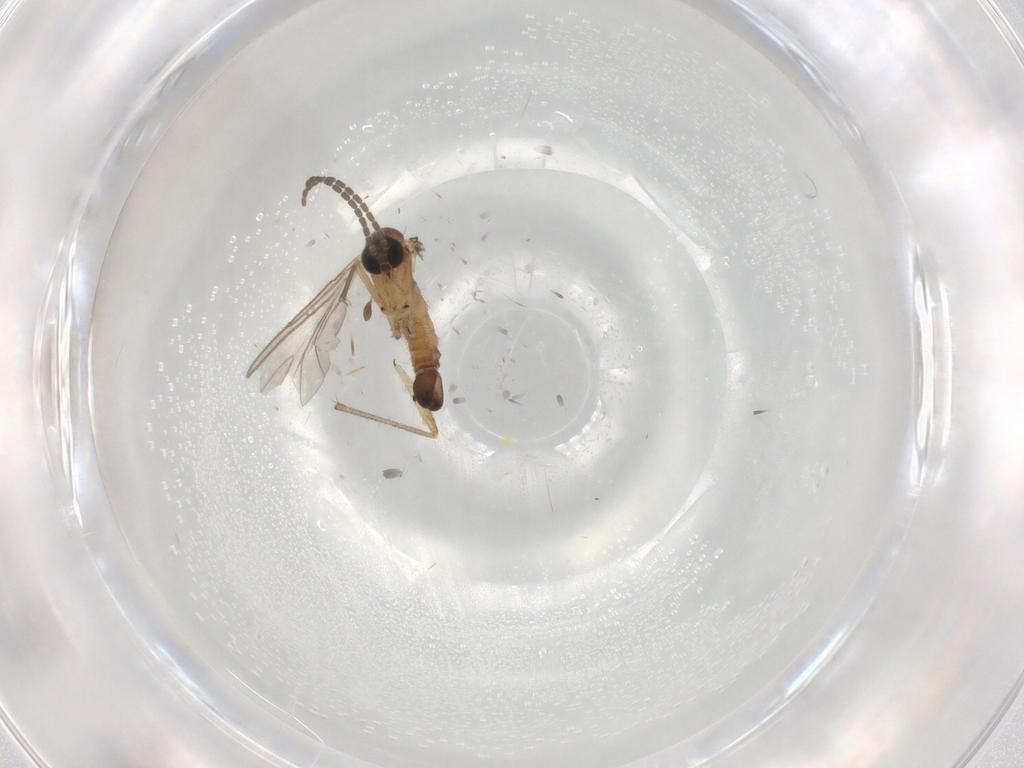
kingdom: Animalia
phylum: Arthropoda
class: Insecta
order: Diptera
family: Sciaridae
